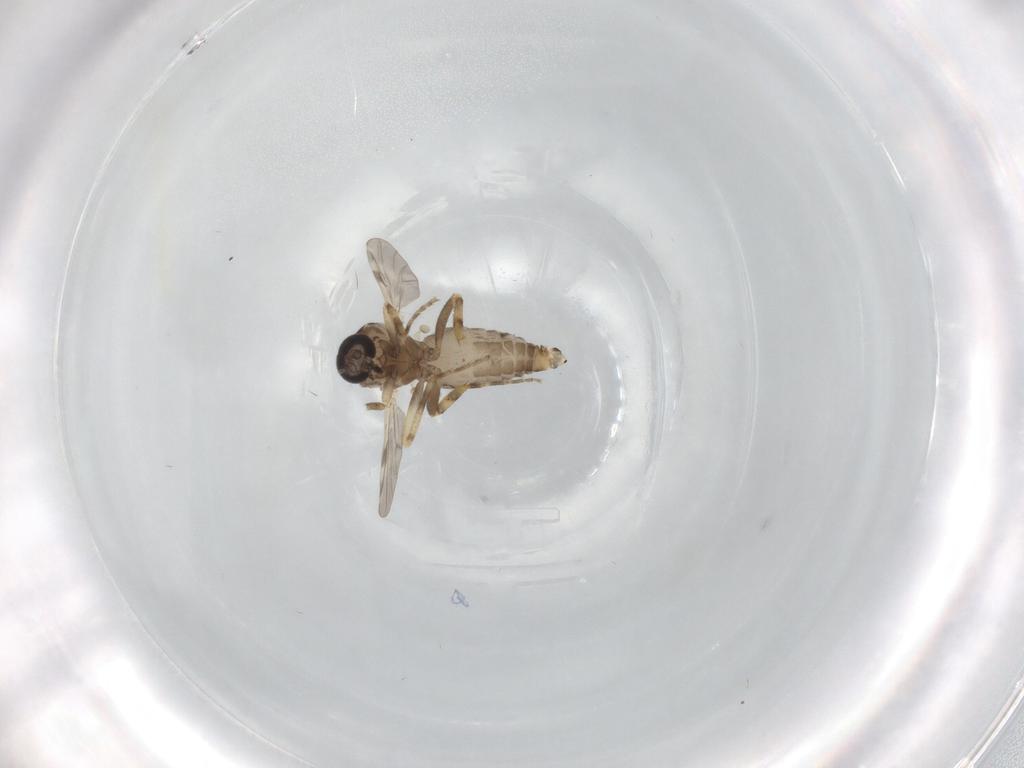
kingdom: Animalia
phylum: Arthropoda
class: Insecta
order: Diptera
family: Ceratopogonidae
